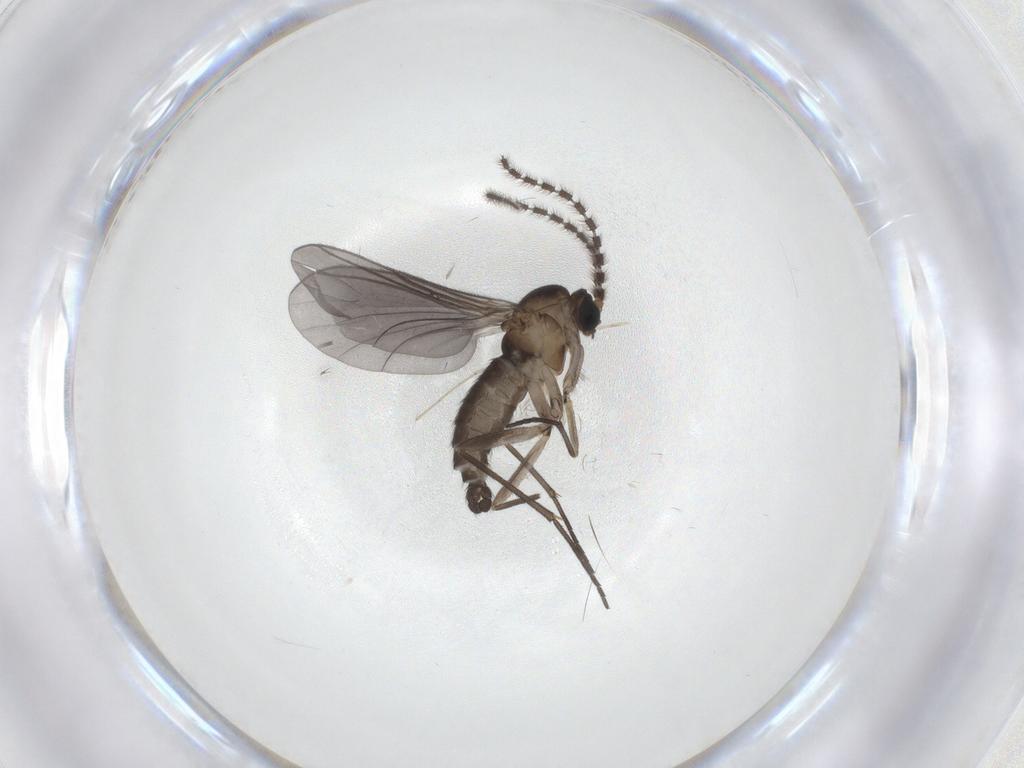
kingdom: Animalia
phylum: Arthropoda
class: Insecta
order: Diptera
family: Sciaridae
